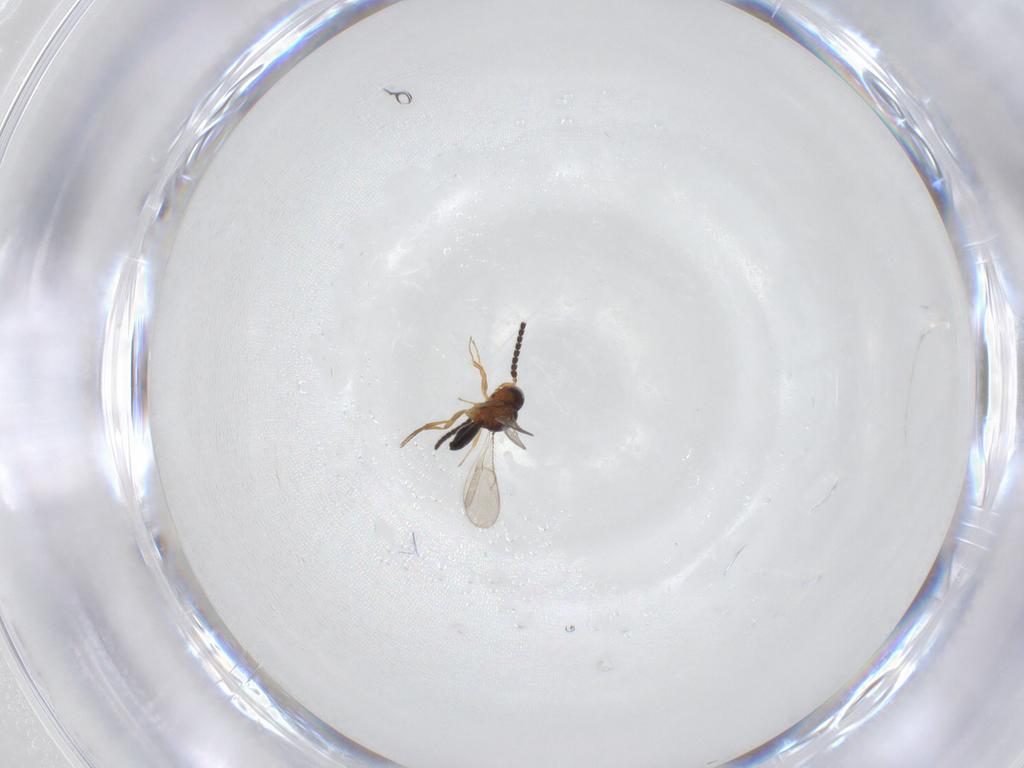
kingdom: Animalia
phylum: Arthropoda
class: Insecta
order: Hymenoptera
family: Scelionidae
